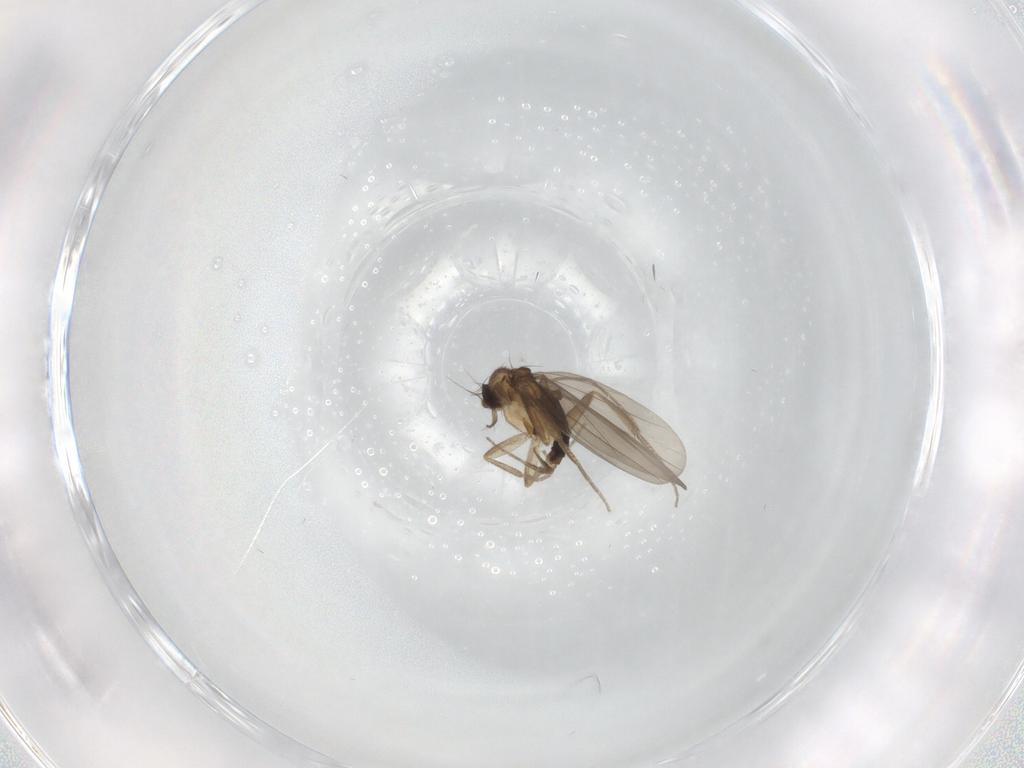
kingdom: Animalia
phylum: Arthropoda
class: Insecta
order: Diptera
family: Phoridae
